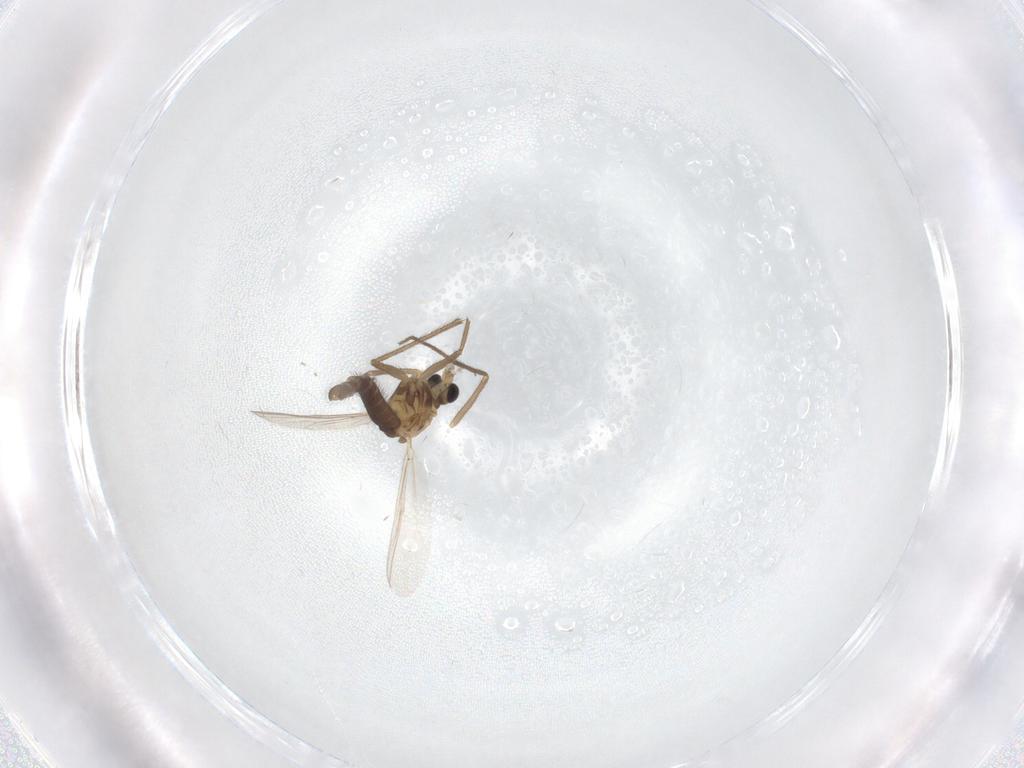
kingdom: Animalia
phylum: Arthropoda
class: Insecta
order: Diptera
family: Chironomidae
